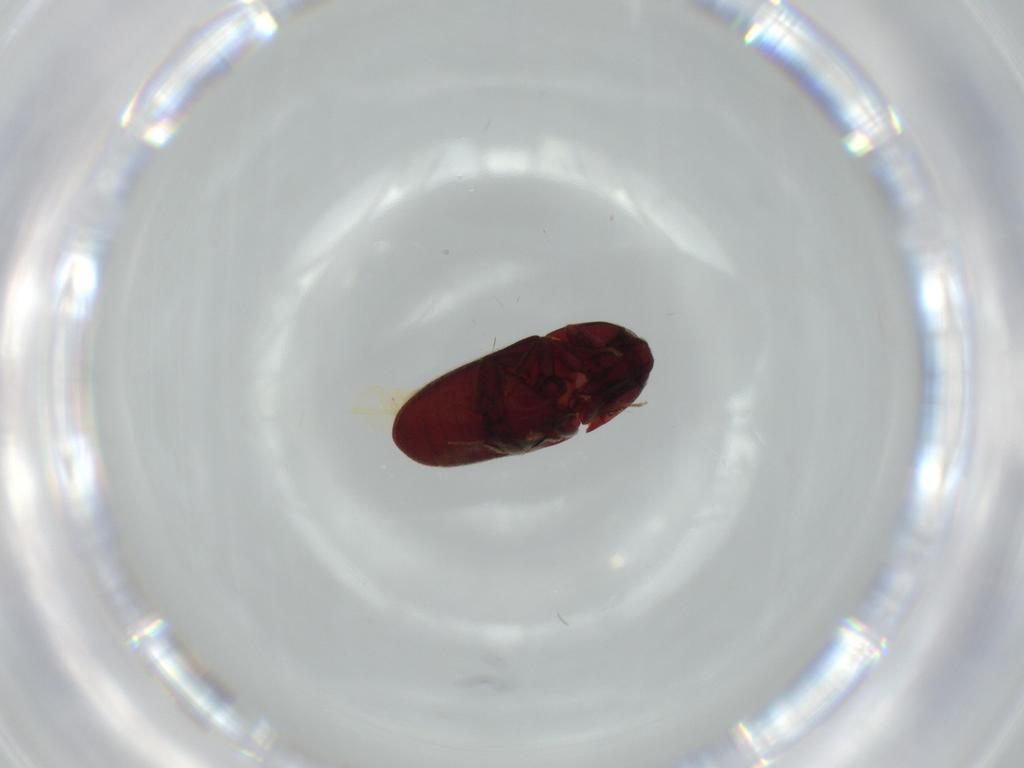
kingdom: Animalia
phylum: Arthropoda
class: Insecta
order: Coleoptera
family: Throscidae
